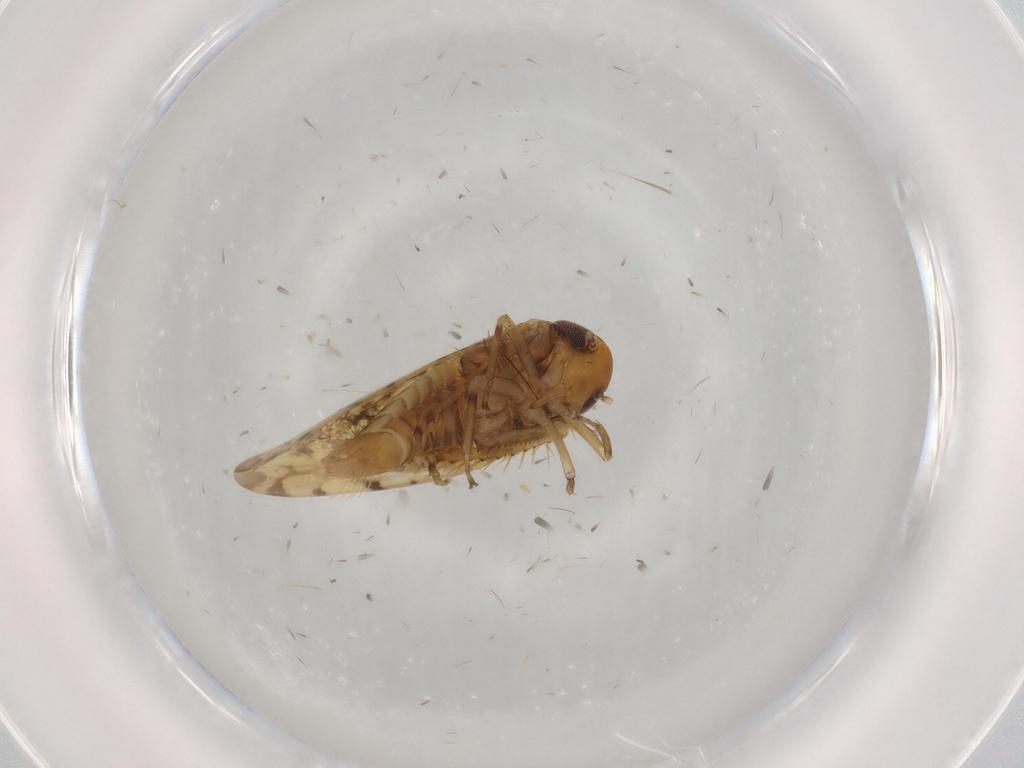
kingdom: Animalia
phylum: Arthropoda
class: Insecta
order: Hemiptera
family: Cicadellidae
